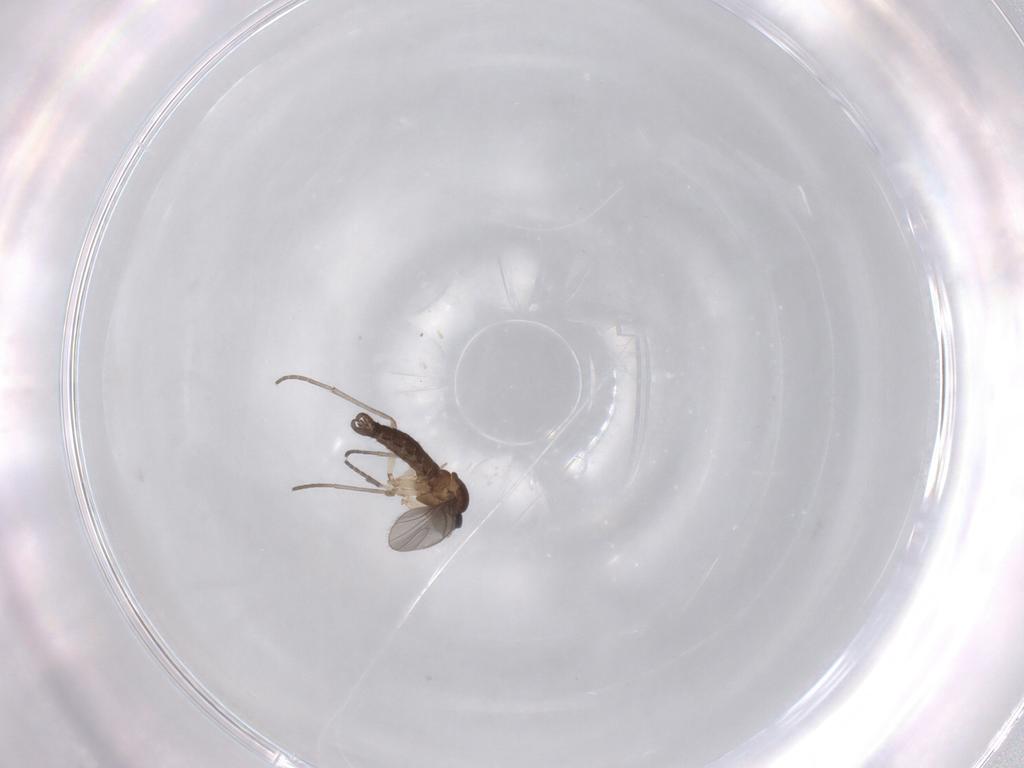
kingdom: Animalia
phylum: Arthropoda
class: Insecta
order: Diptera
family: Sciaridae
